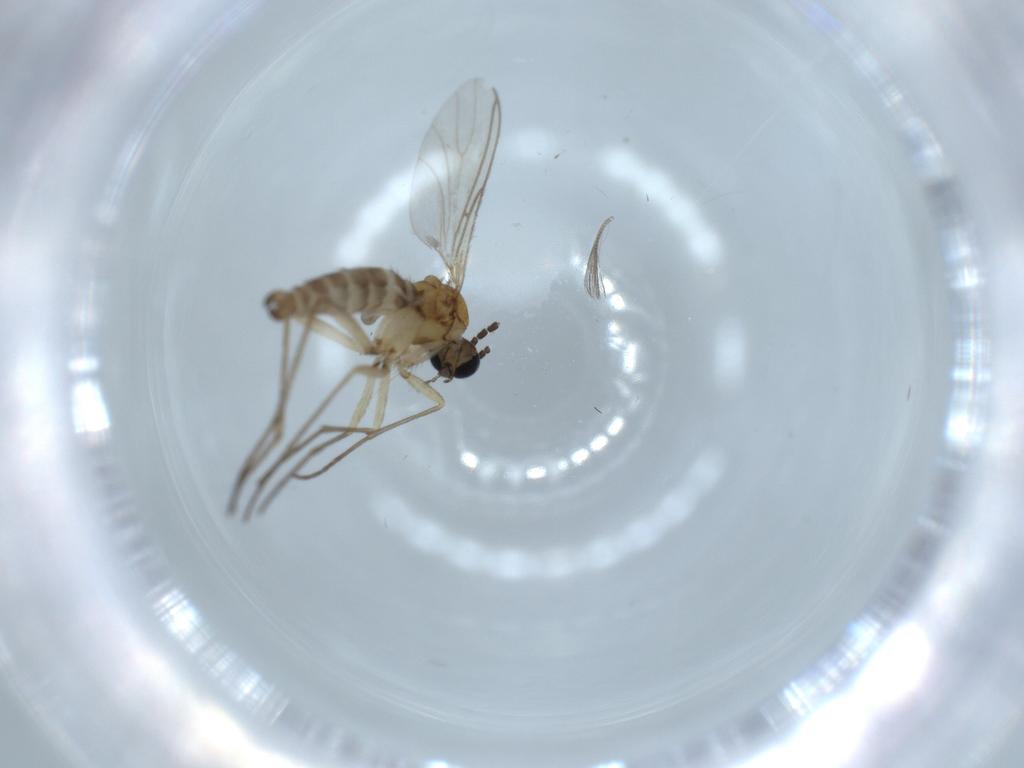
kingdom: Animalia
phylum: Arthropoda
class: Insecta
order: Diptera
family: Sciaridae
